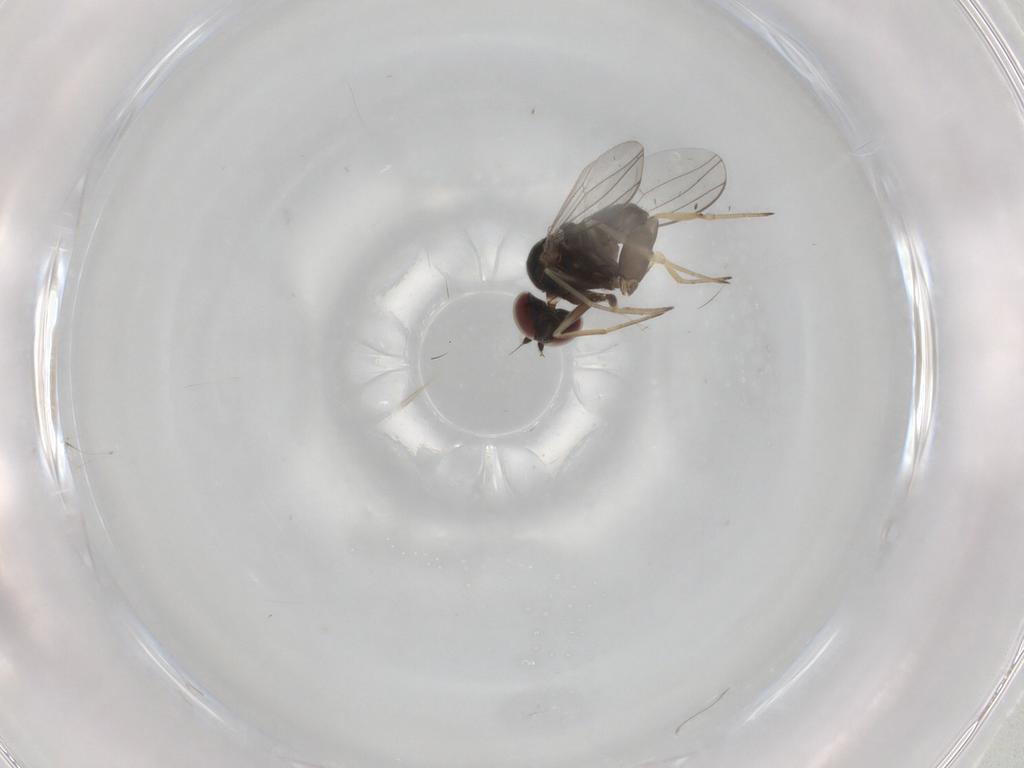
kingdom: Animalia
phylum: Arthropoda
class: Insecta
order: Diptera
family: Dolichopodidae
